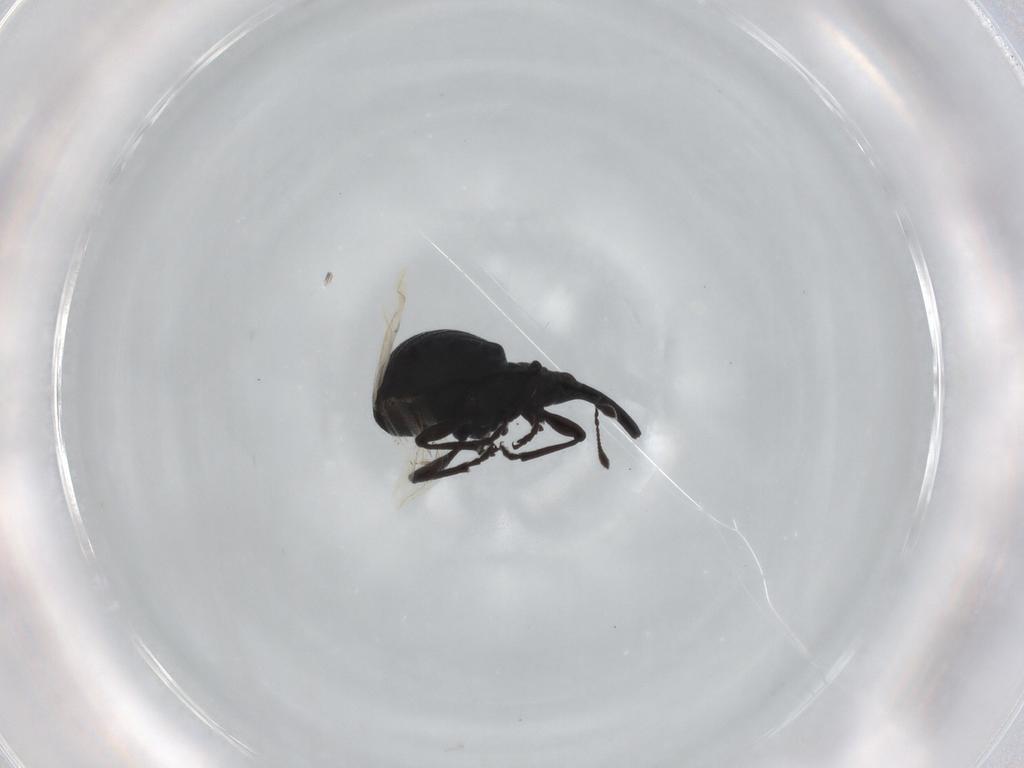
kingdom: Animalia
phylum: Arthropoda
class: Insecta
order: Coleoptera
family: Brentidae
